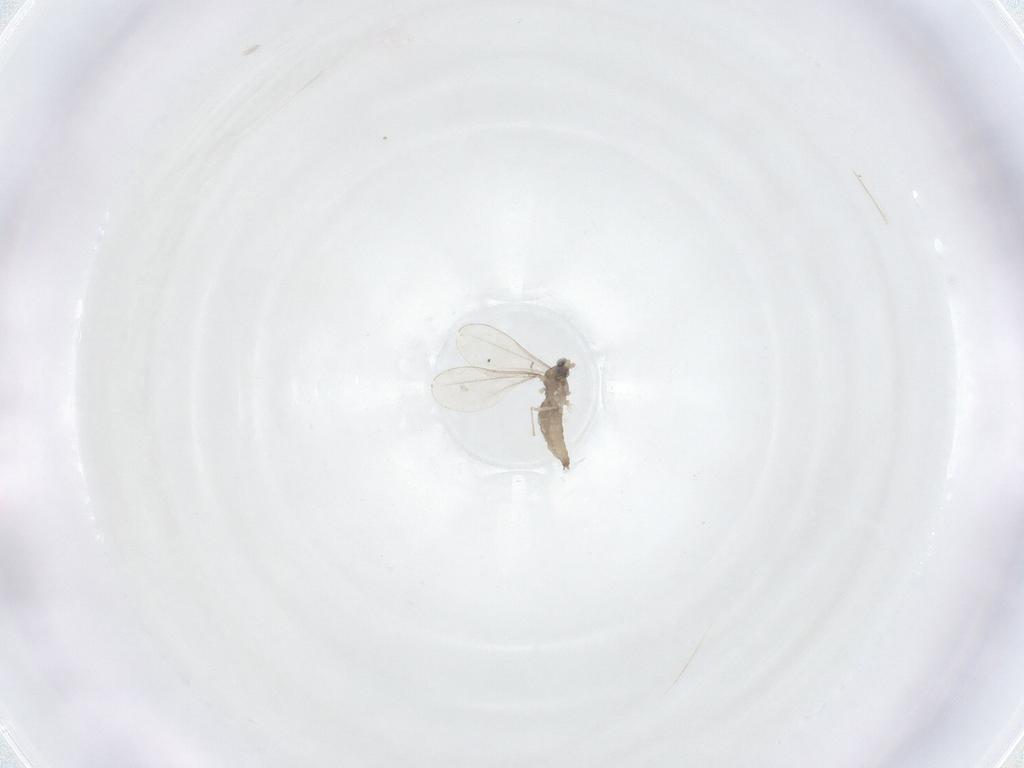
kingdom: Animalia
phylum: Arthropoda
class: Insecta
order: Diptera
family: Cecidomyiidae
